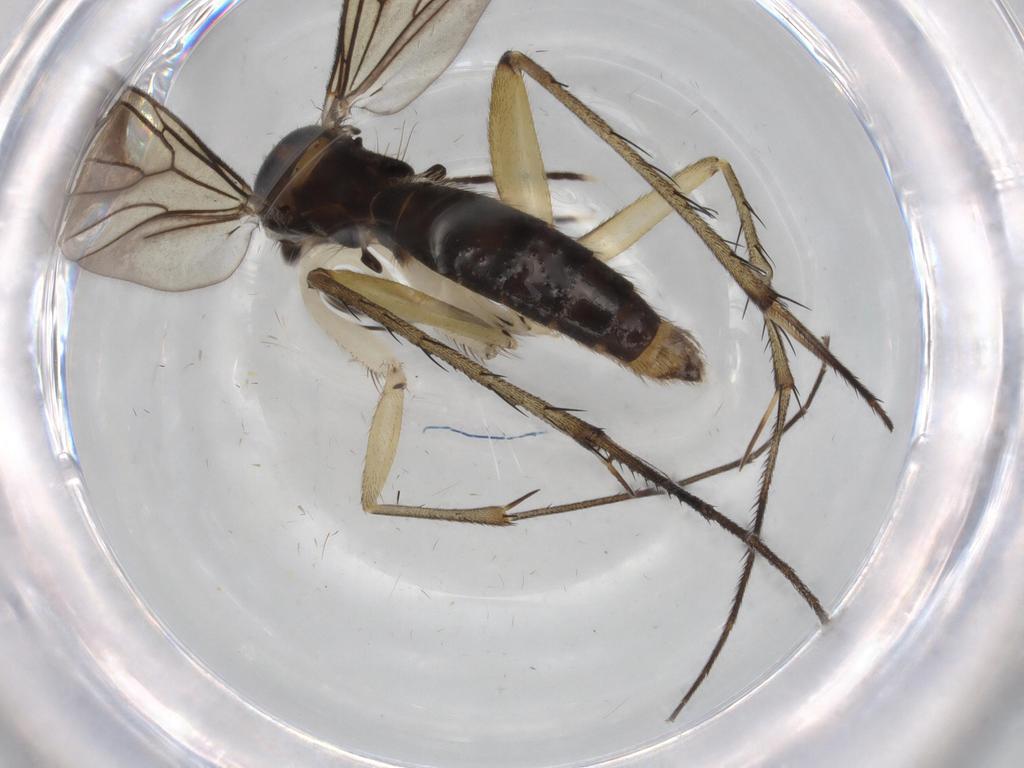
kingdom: Animalia
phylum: Arthropoda
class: Insecta
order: Diptera
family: Mycetophilidae
